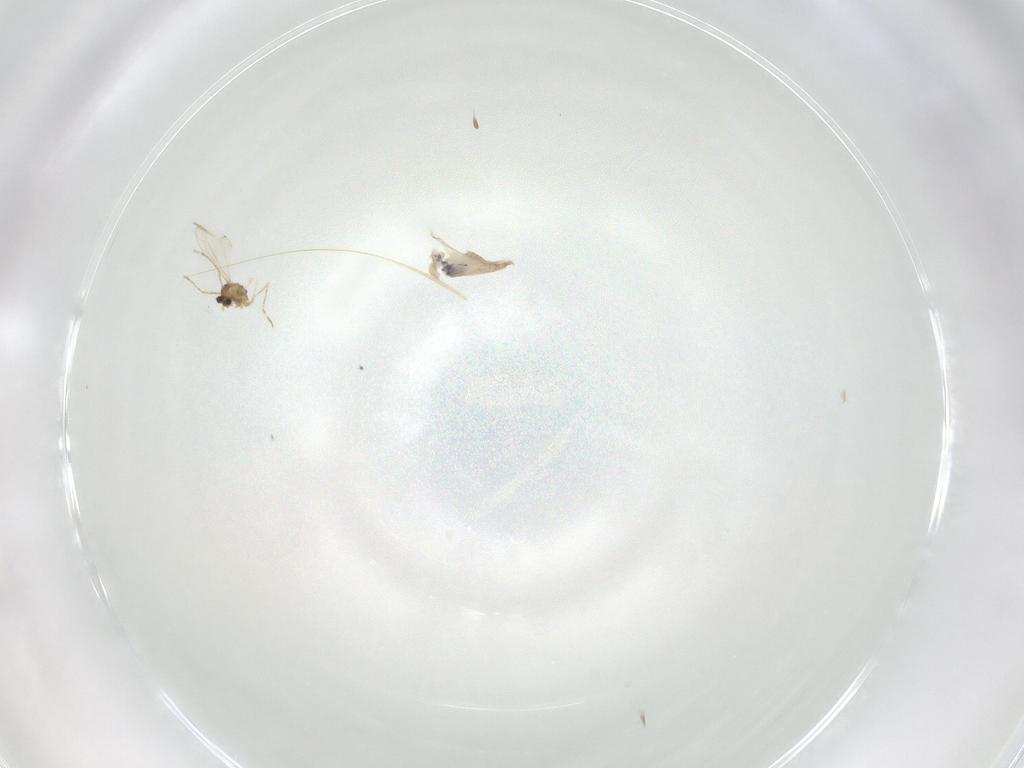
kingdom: Animalia
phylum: Arthropoda
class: Insecta
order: Diptera
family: Cecidomyiidae
